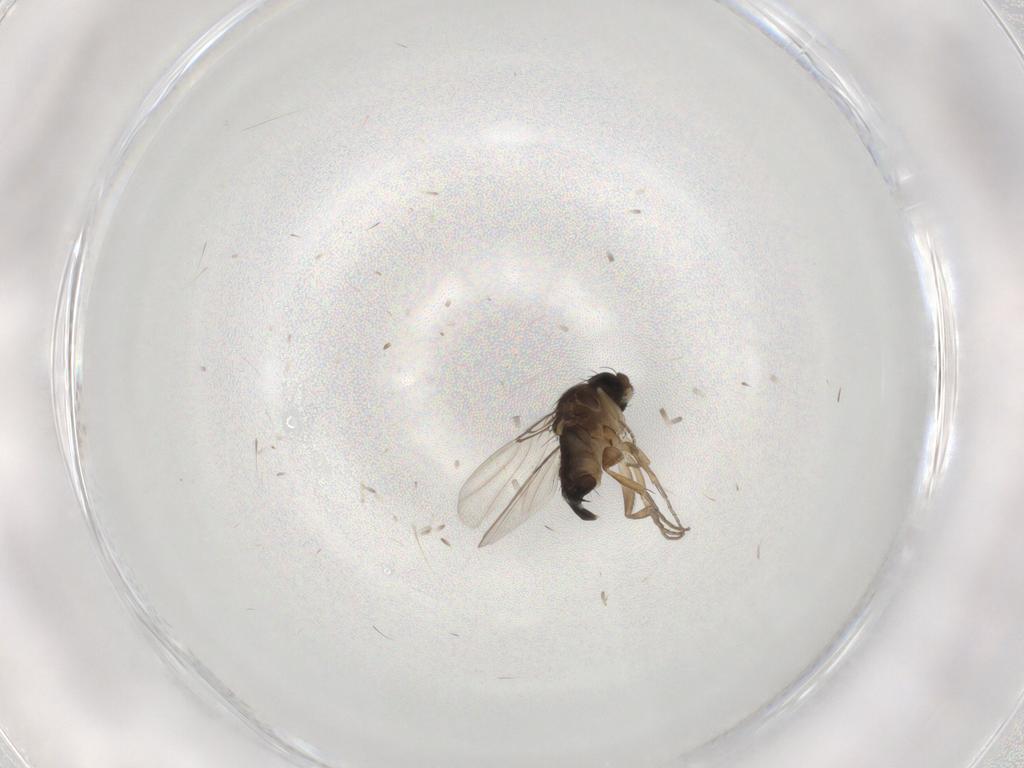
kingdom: Animalia
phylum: Arthropoda
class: Insecta
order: Diptera
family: Phoridae
